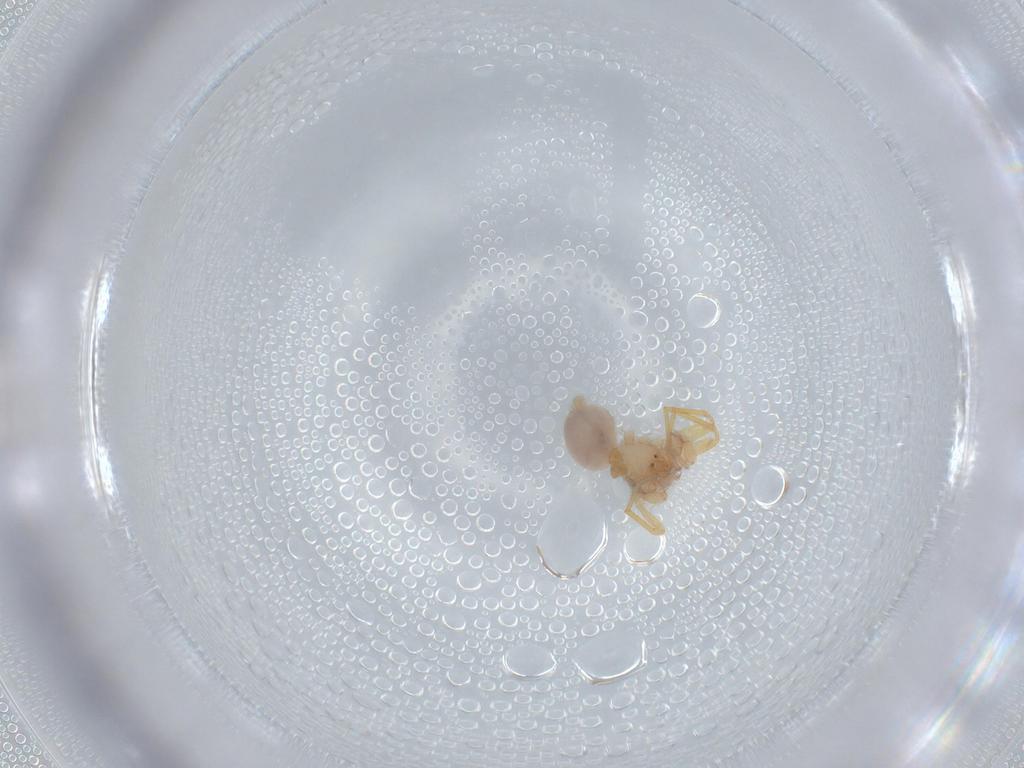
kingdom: Animalia
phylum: Arthropoda
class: Arachnida
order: Araneae
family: Oonopidae
